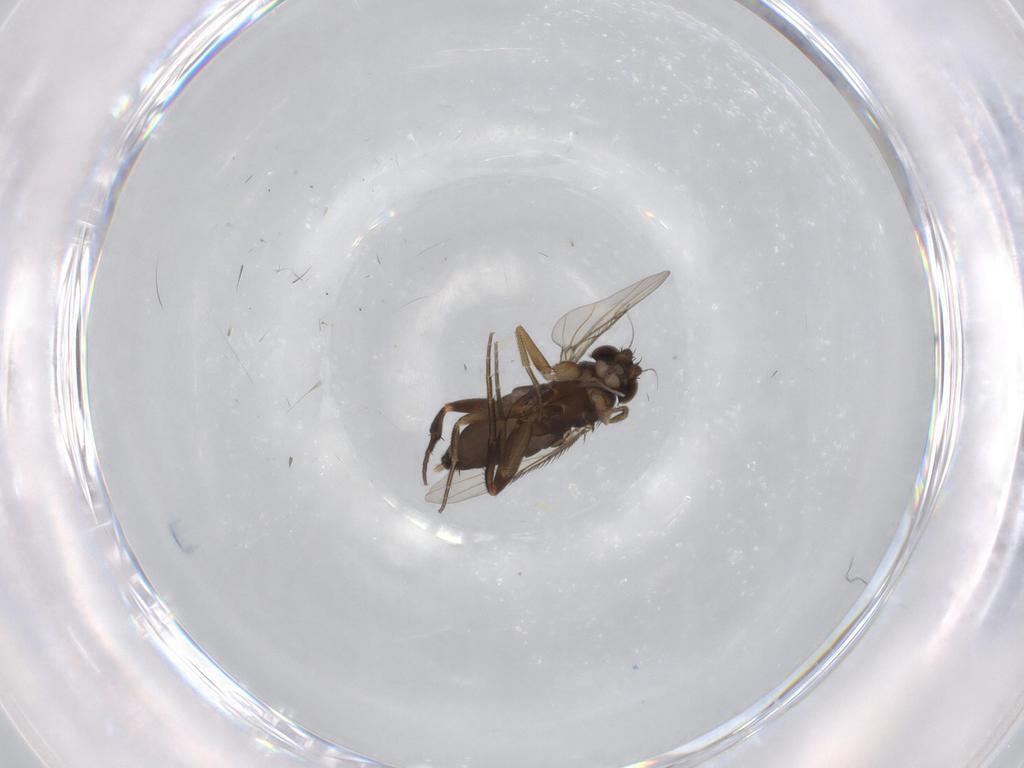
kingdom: Animalia
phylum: Arthropoda
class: Insecta
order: Diptera
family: Phoridae
